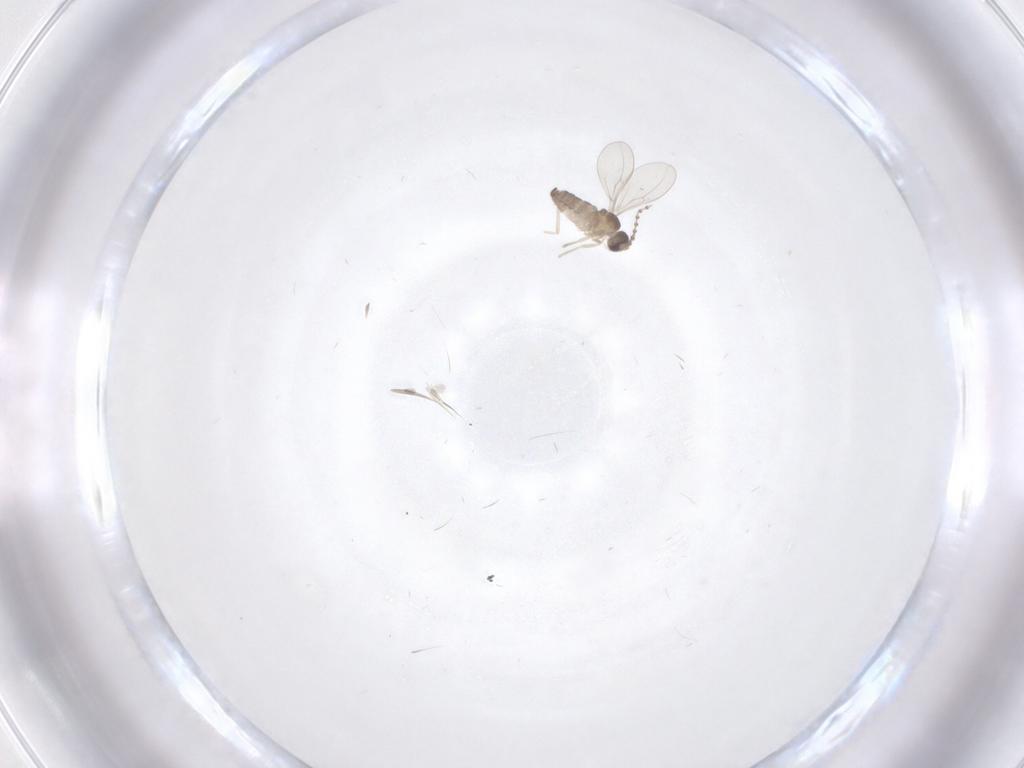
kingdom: Animalia
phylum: Arthropoda
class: Insecta
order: Diptera
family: Cecidomyiidae
